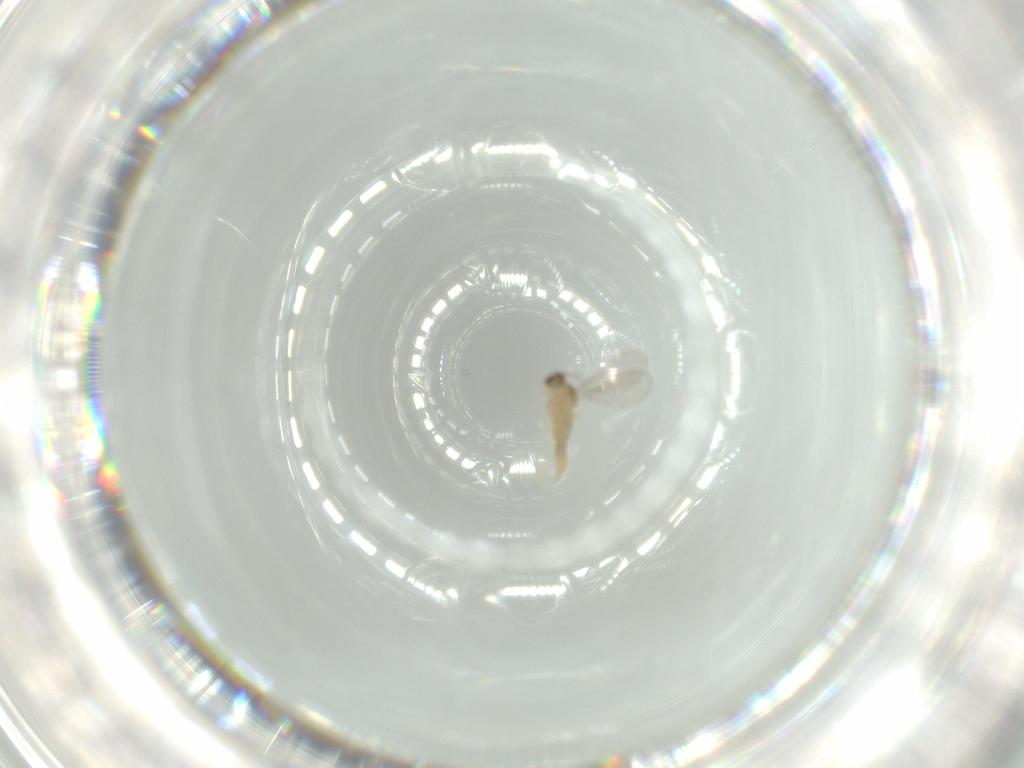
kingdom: Animalia
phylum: Arthropoda
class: Insecta
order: Diptera
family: Cecidomyiidae
